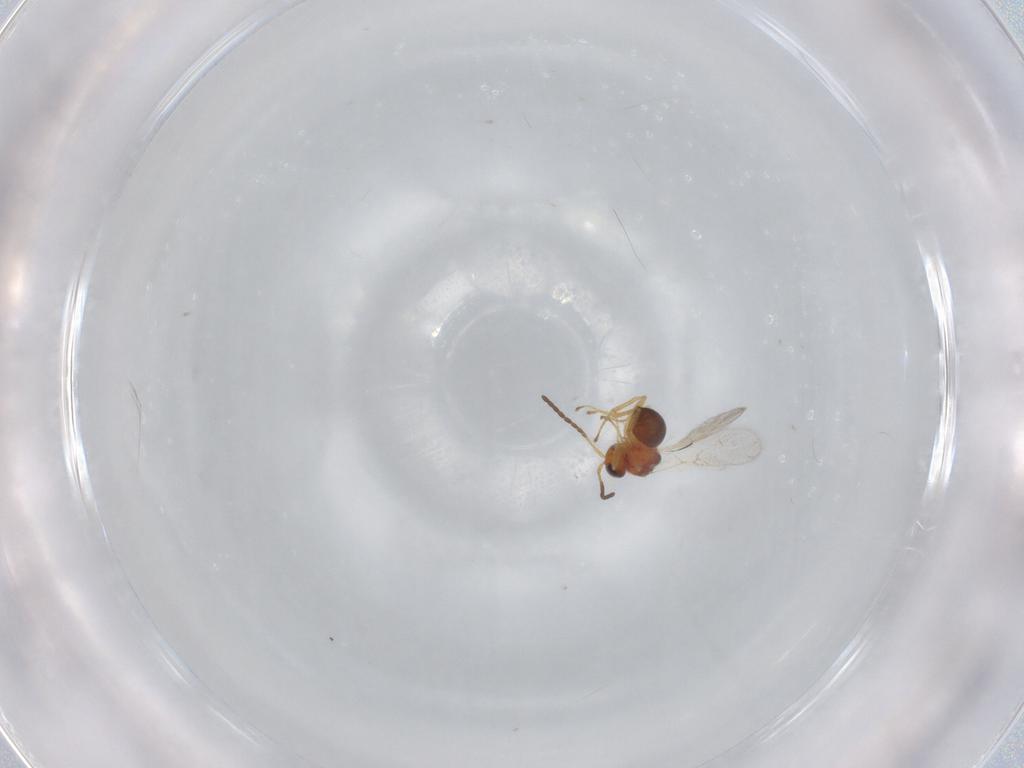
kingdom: Animalia
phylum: Arthropoda
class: Insecta
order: Hymenoptera
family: Figitidae
